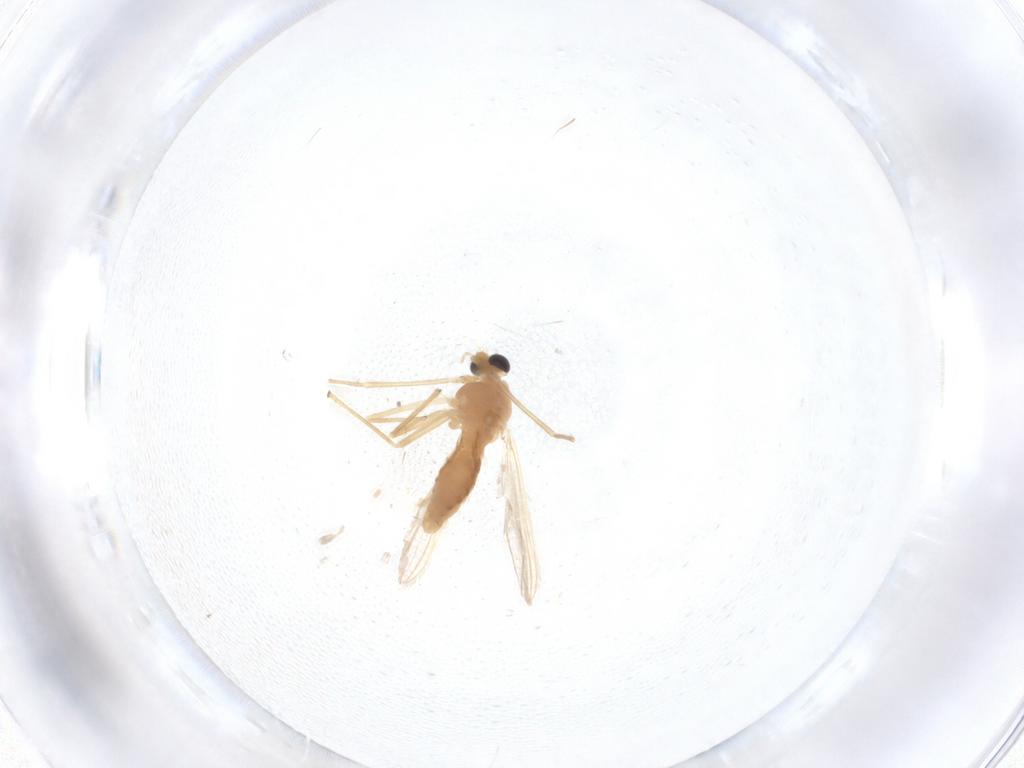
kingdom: Animalia
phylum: Arthropoda
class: Insecta
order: Diptera
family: Chironomidae
